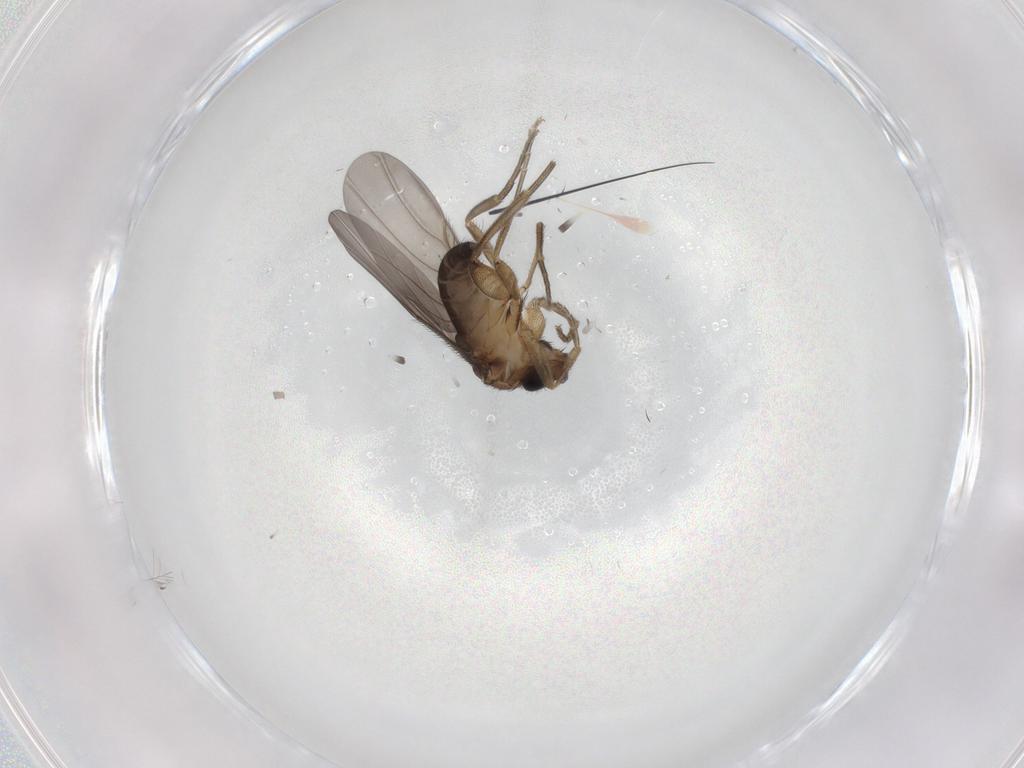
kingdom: Animalia
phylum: Arthropoda
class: Insecta
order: Diptera
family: Phoridae
